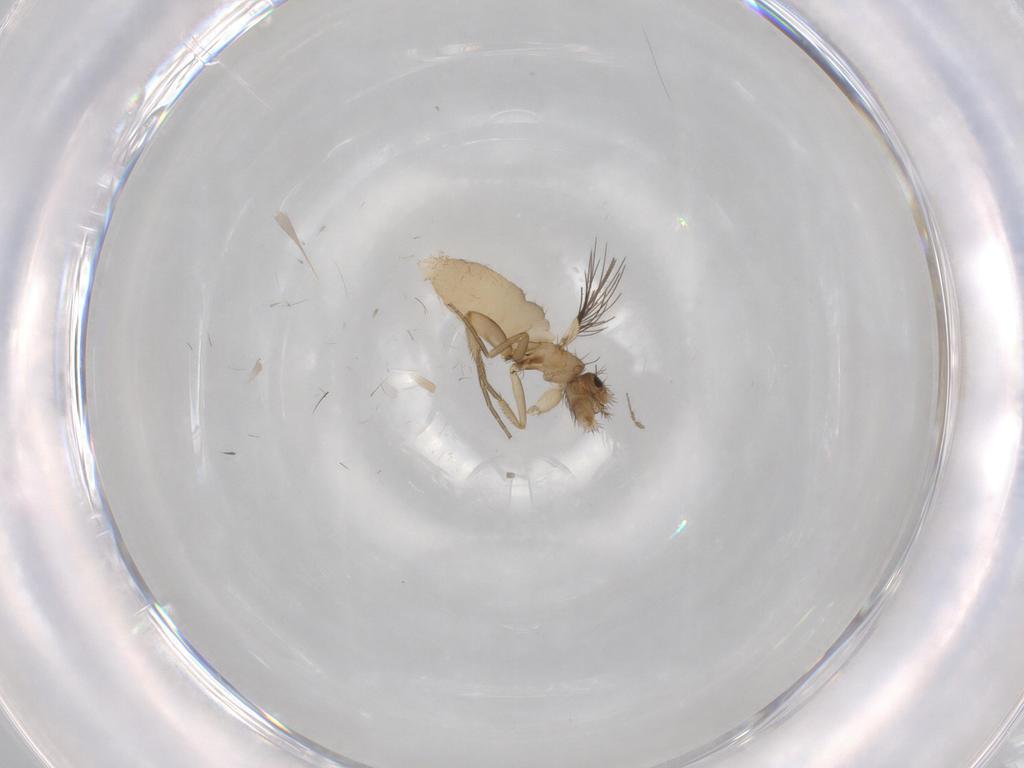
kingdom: Animalia
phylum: Arthropoda
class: Insecta
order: Diptera
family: Phoridae
